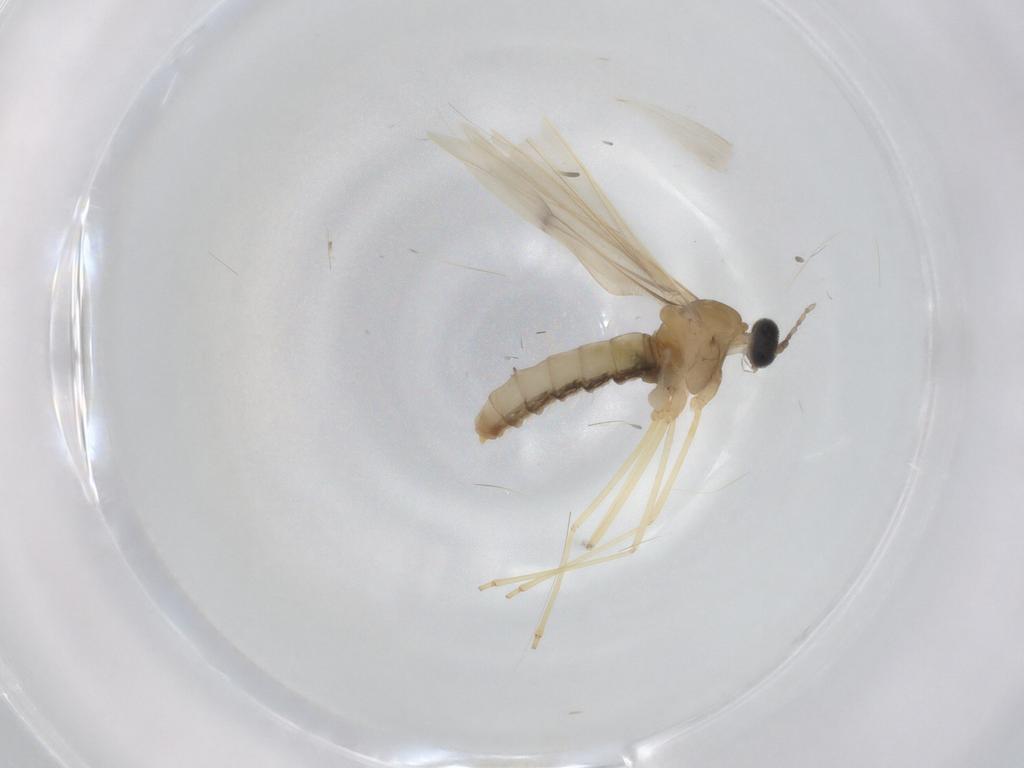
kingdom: Animalia
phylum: Arthropoda
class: Insecta
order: Diptera
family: Cecidomyiidae
